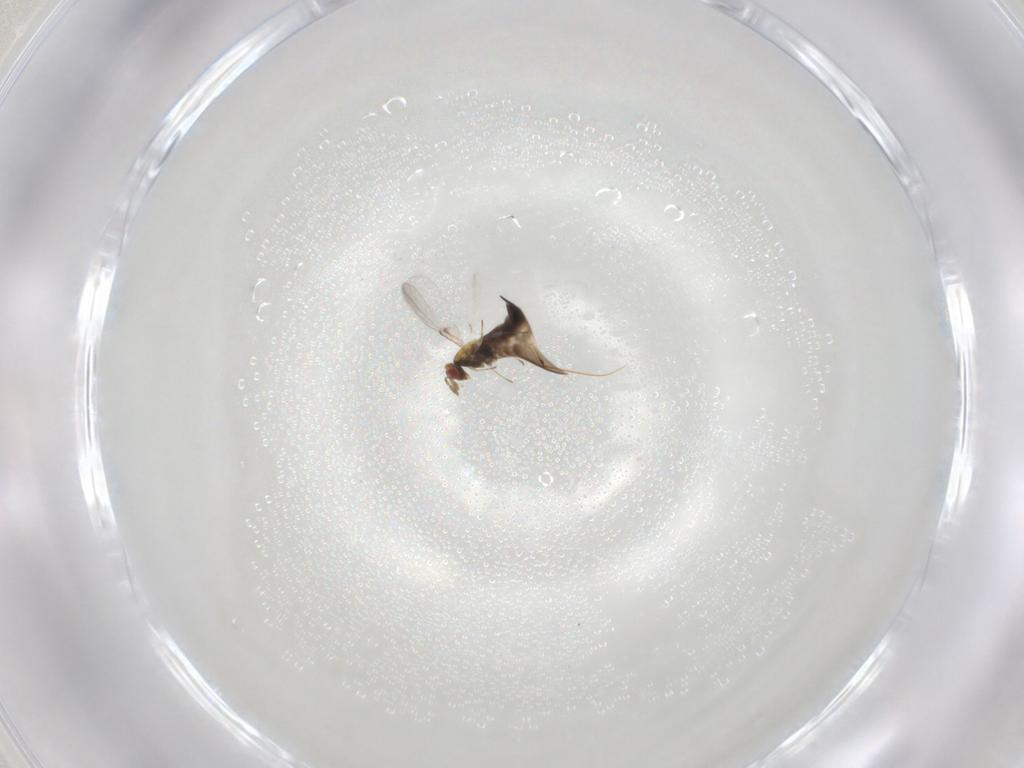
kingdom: Animalia
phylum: Arthropoda
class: Insecta
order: Hymenoptera
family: Trichogrammatidae
